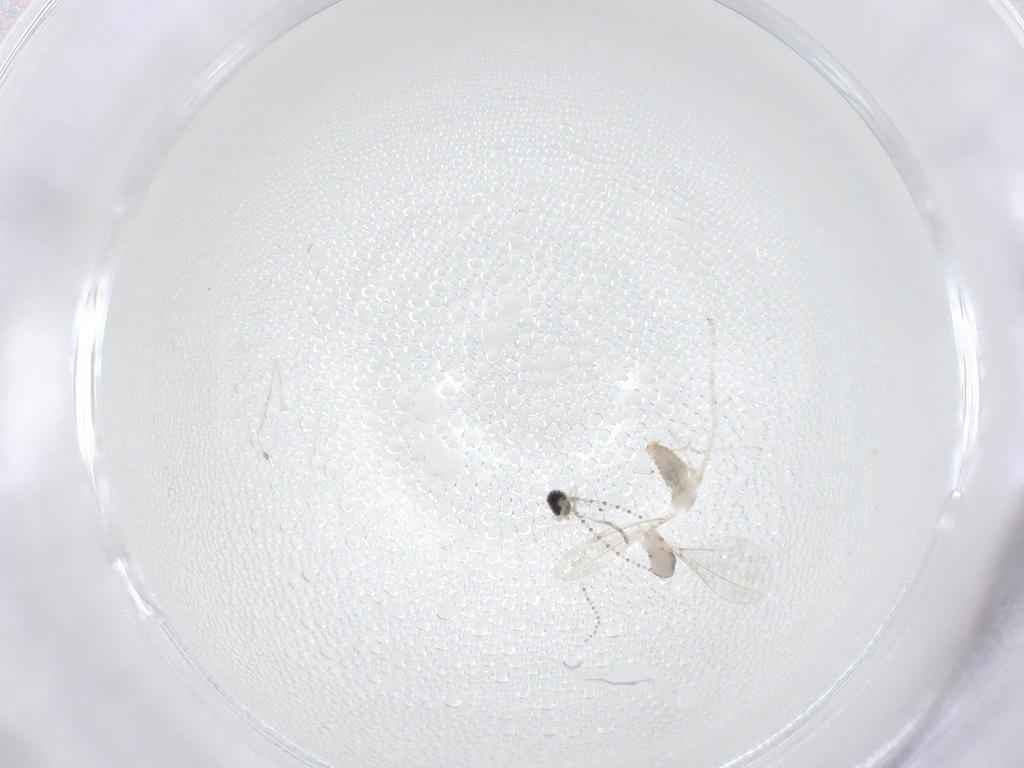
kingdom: Animalia
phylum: Arthropoda
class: Insecta
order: Diptera
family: Cecidomyiidae
